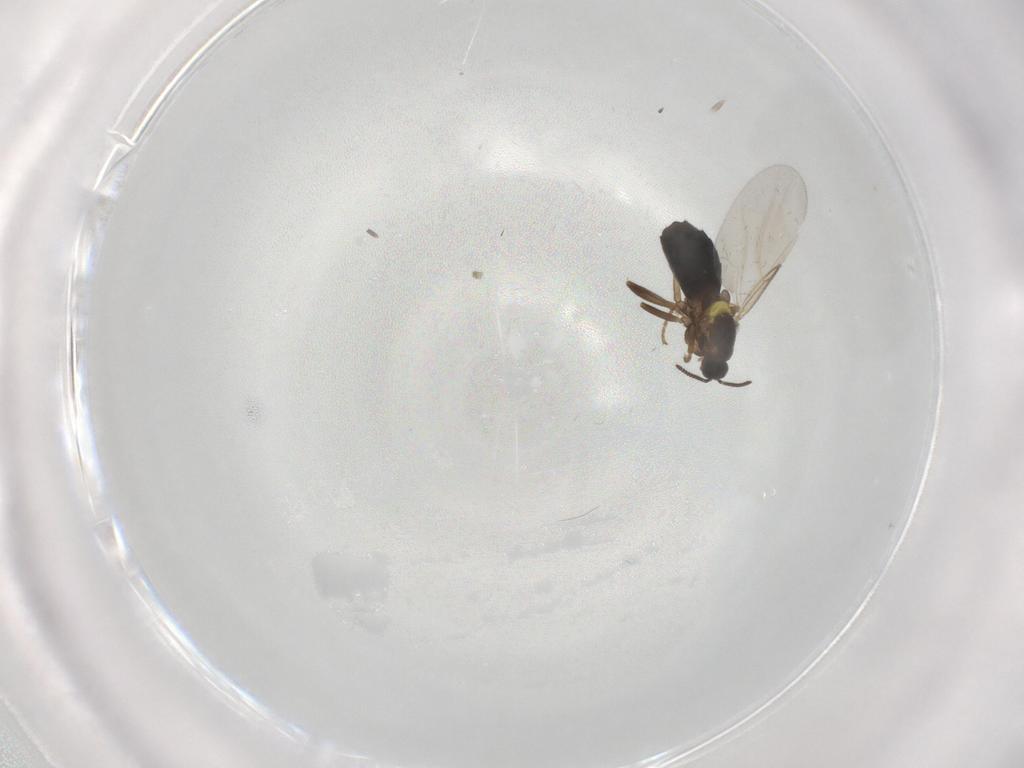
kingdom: Animalia
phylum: Arthropoda
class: Insecta
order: Diptera
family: Scatopsidae
